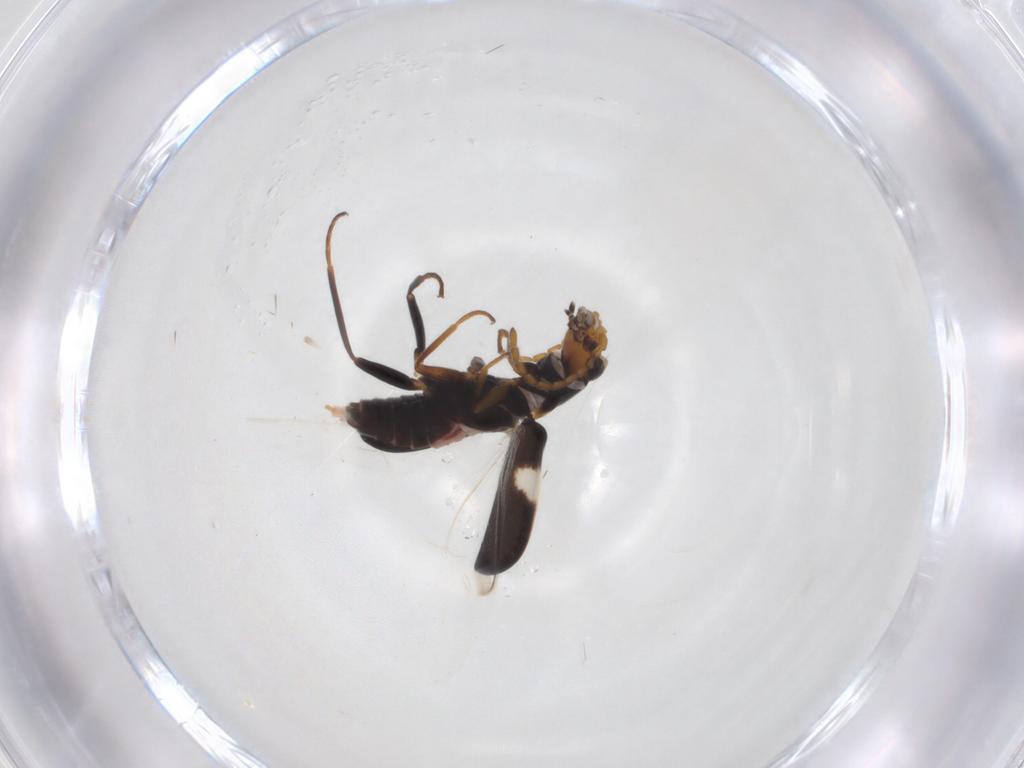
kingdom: Animalia
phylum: Arthropoda
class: Insecta
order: Coleoptera
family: Melyridae
